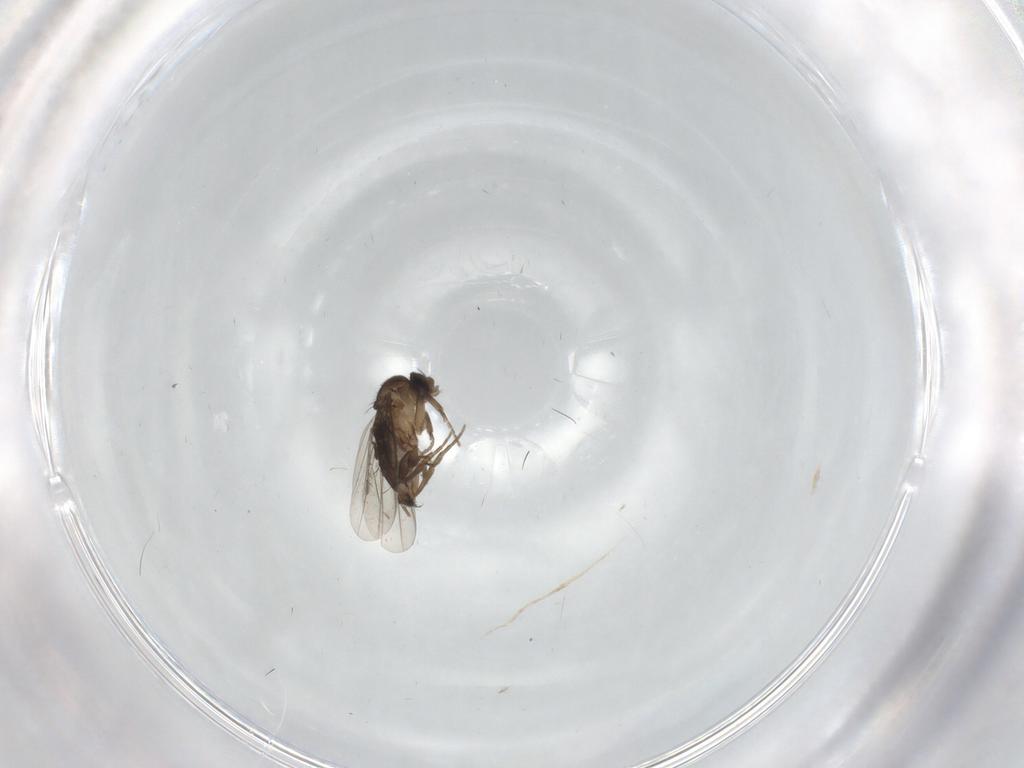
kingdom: Animalia
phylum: Arthropoda
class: Insecta
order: Diptera
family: Phoridae
